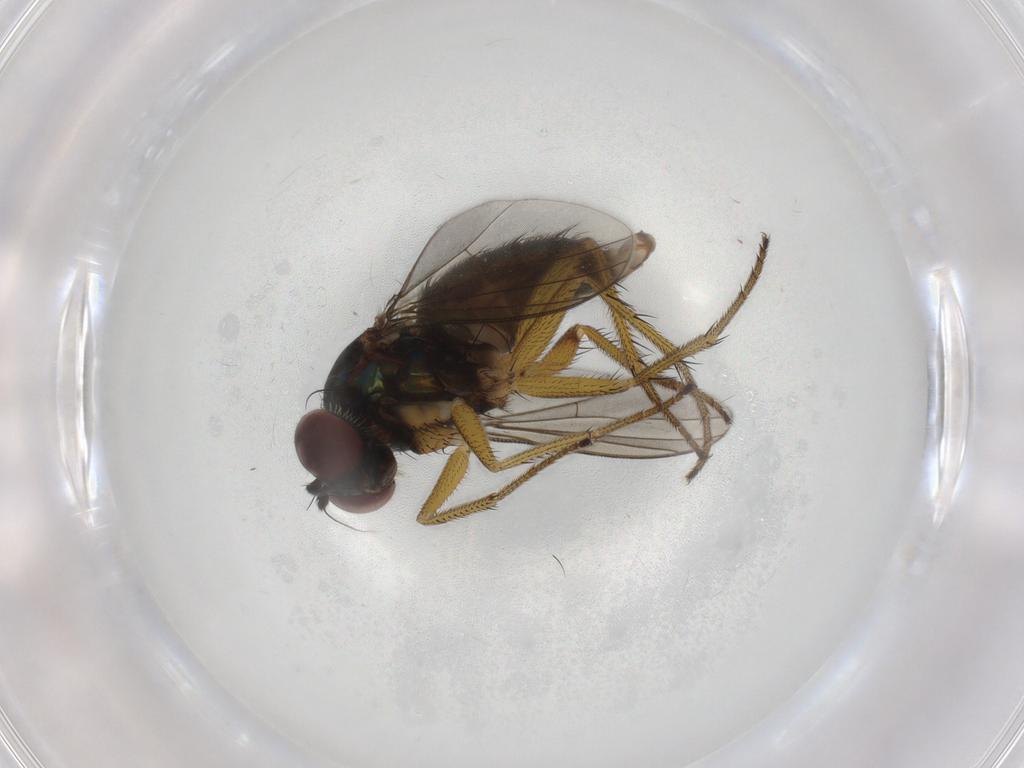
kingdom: Animalia
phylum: Arthropoda
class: Insecta
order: Diptera
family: Dolichopodidae
